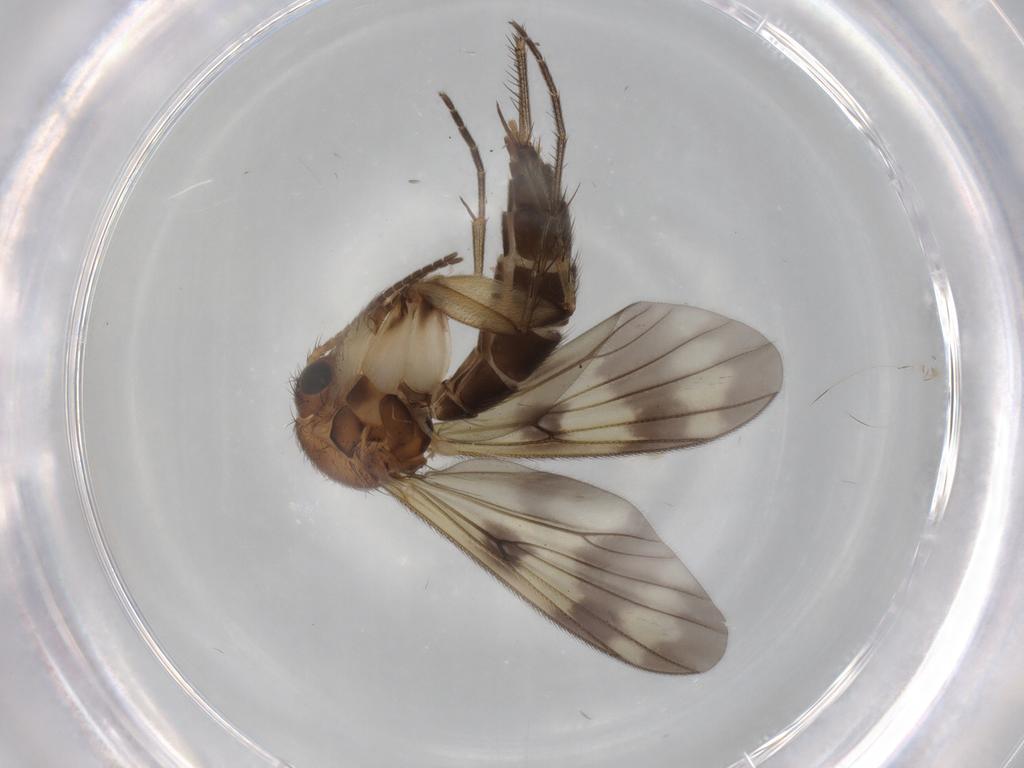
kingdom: Animalia
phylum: Arthropoda
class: Insecta
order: Diptera
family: Mycetophilidae
